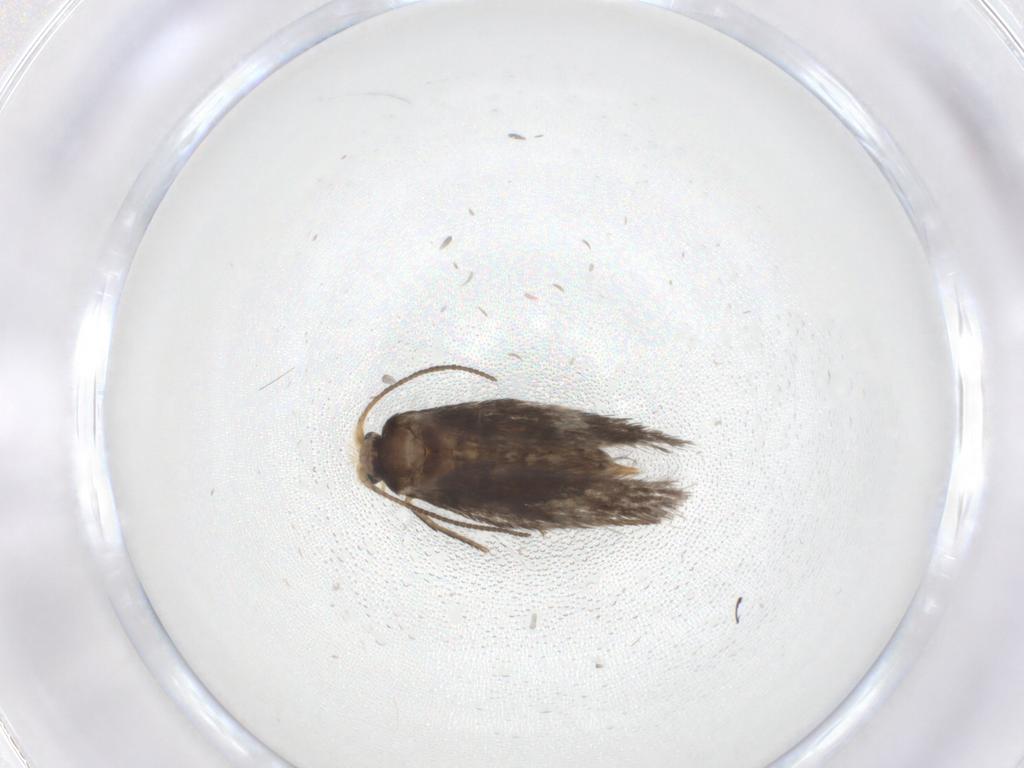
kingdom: Animalia
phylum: Arthropoda
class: Insecta
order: Lepidoptera
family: Nepticulidae
